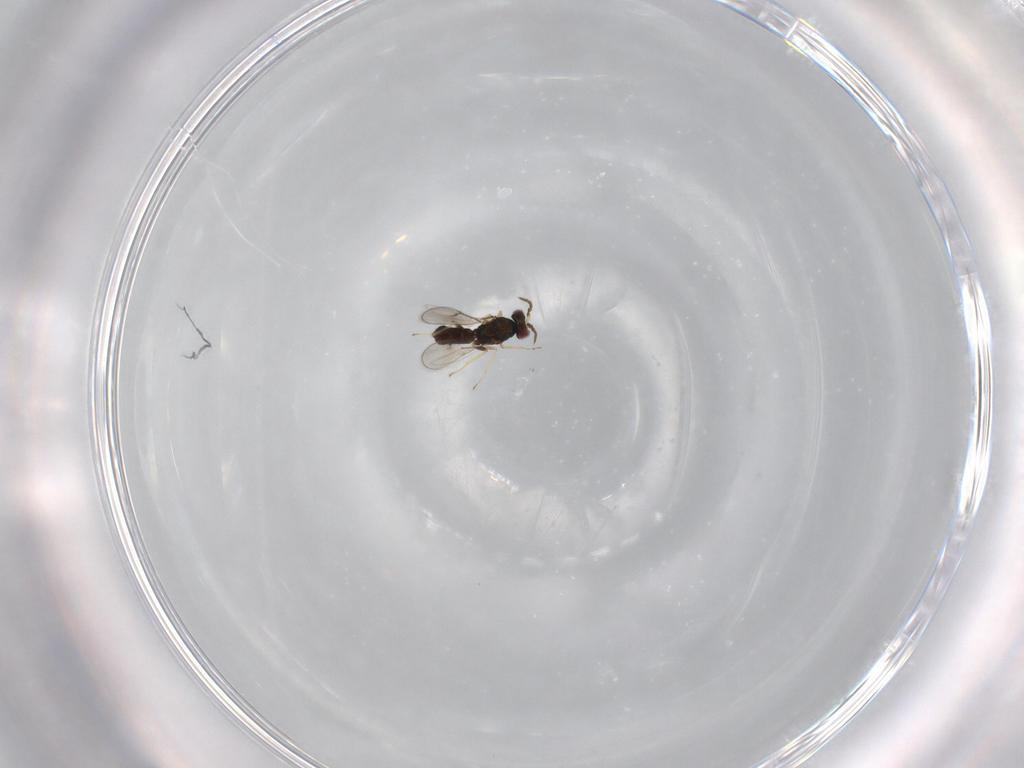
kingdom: Animalia
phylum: Arthropoda
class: Insecta
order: Hymenoptera
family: Eulophidae
